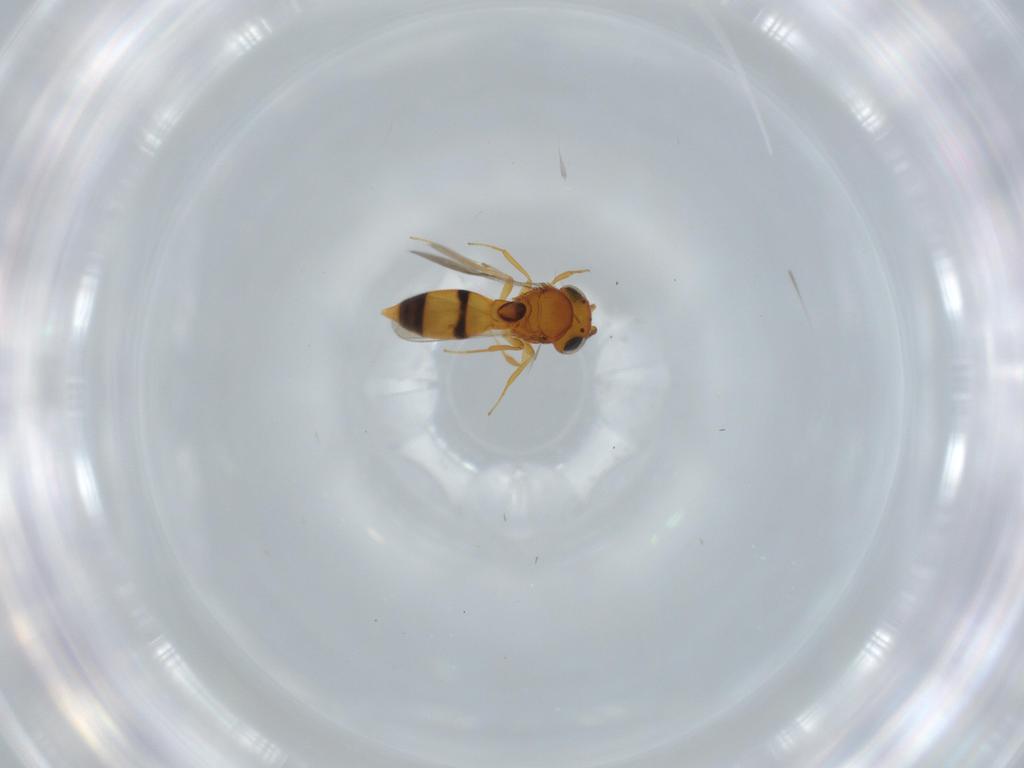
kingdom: Animalia
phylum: Arthropoda
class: Insecta
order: Hymenoptera
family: Scelionidae
